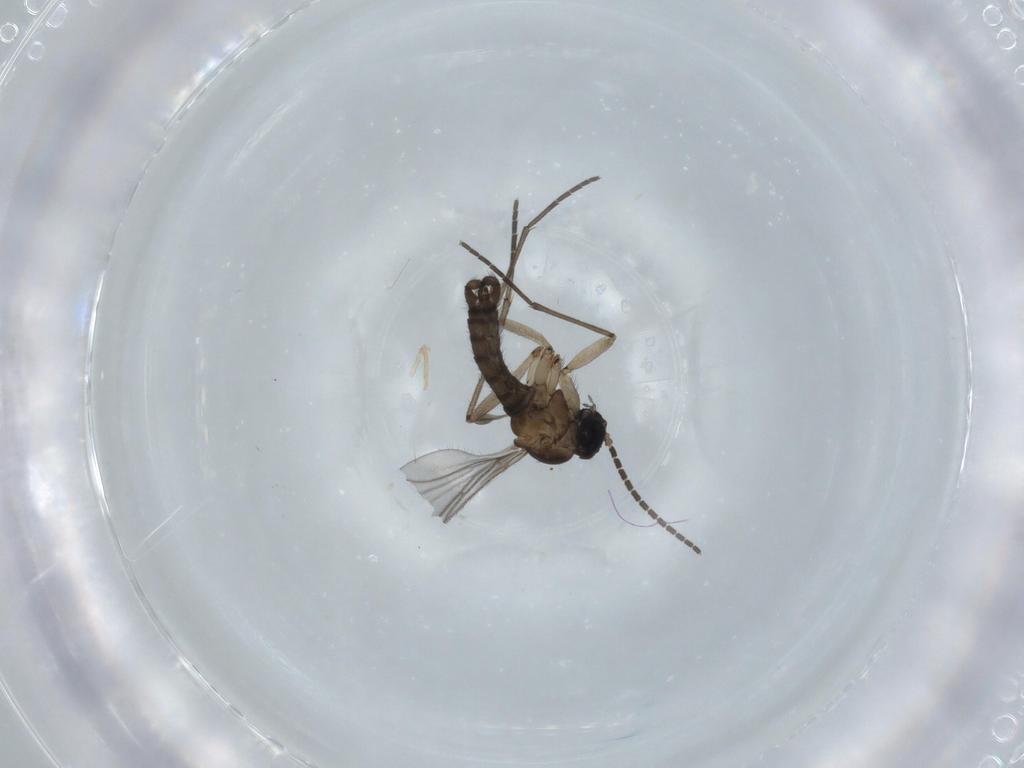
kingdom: Animalia
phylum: Arthropoda
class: Insecta
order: Diptera
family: Sciaridae
